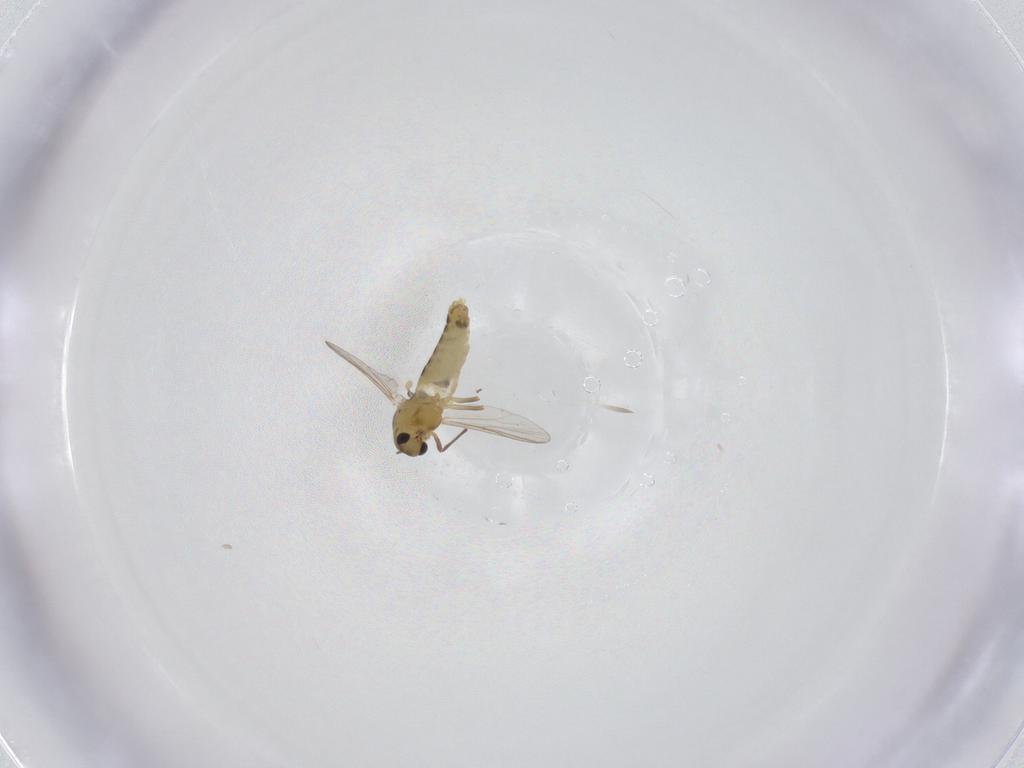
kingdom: Animalia
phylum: Arthropoda
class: Insecta
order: Diptera
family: Chironomidae
